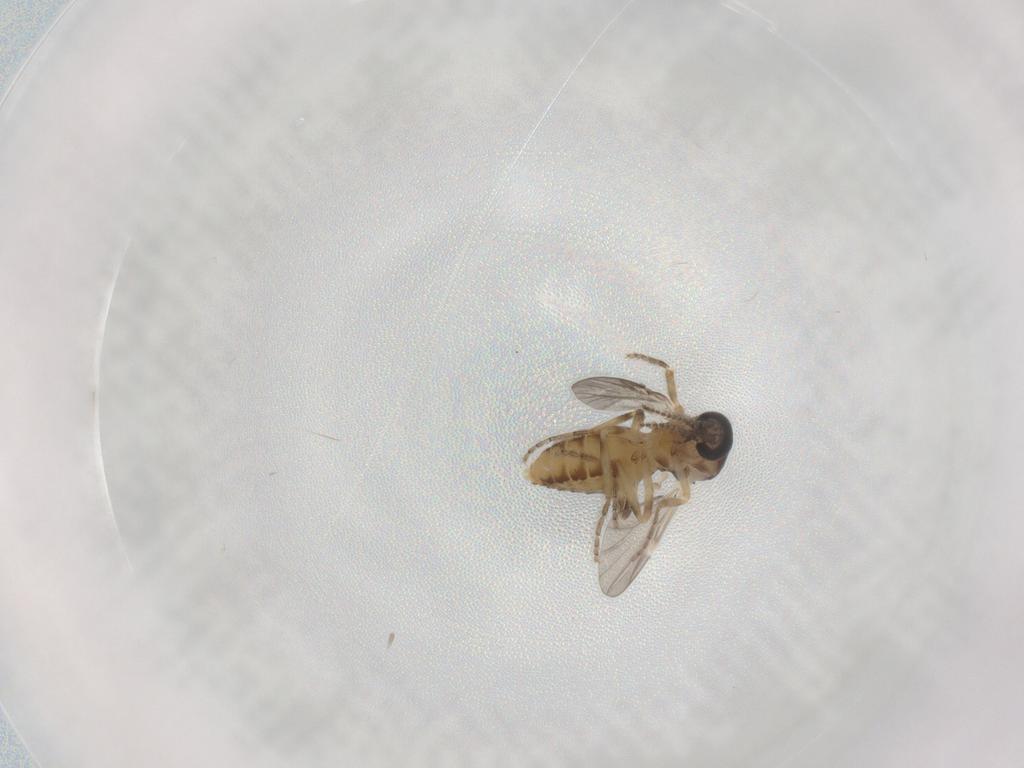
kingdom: Animalia
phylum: Arthropoda
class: Insecta
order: Diptera
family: Ceratopogonidae
